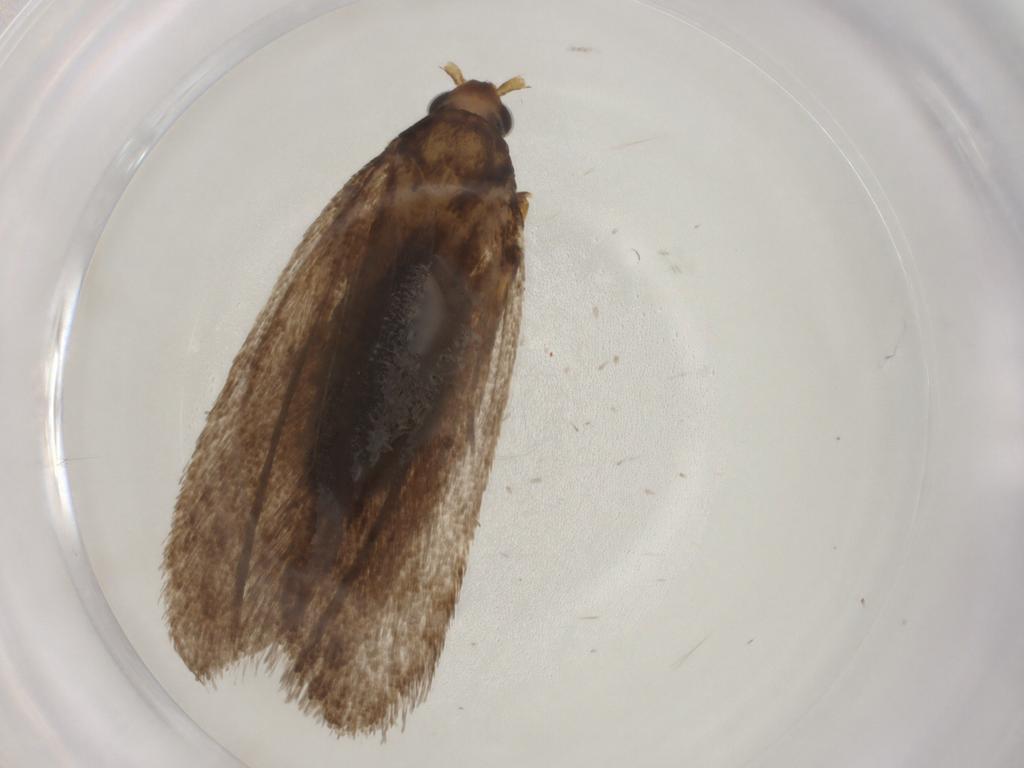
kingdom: Animalia
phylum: Arthropoda
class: Insecta
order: Lepidoptera
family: Lecithoceridae
